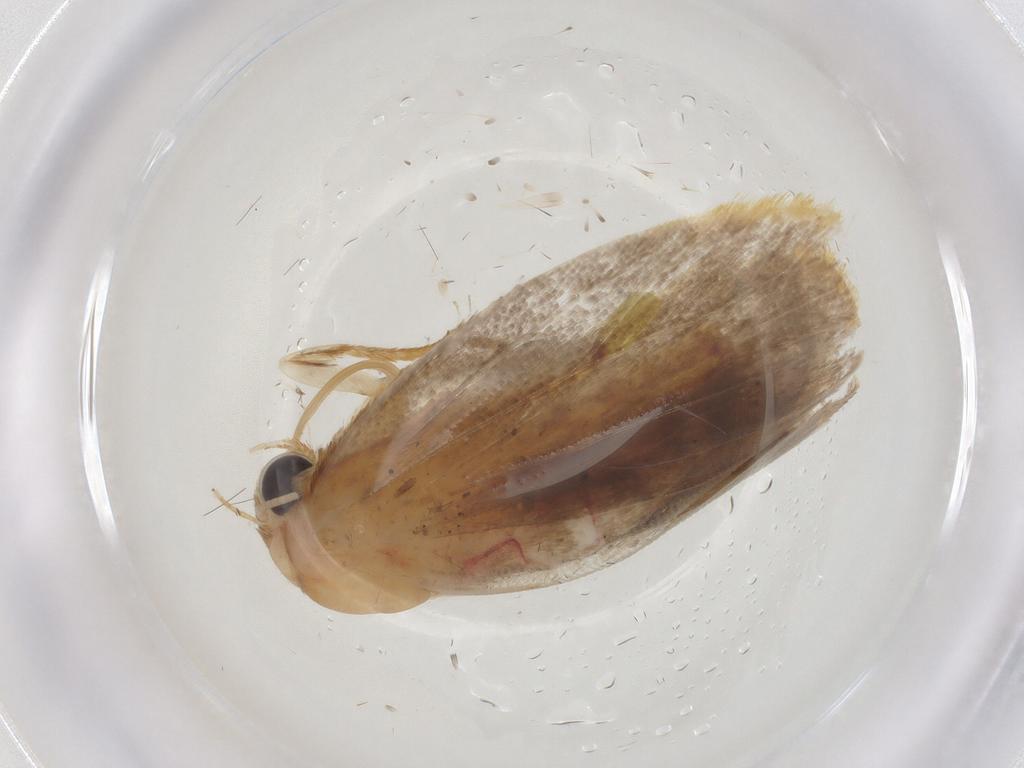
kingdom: Animalia
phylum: Arthropoda
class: Insecta
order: Lepidoptera
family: Erebidae
